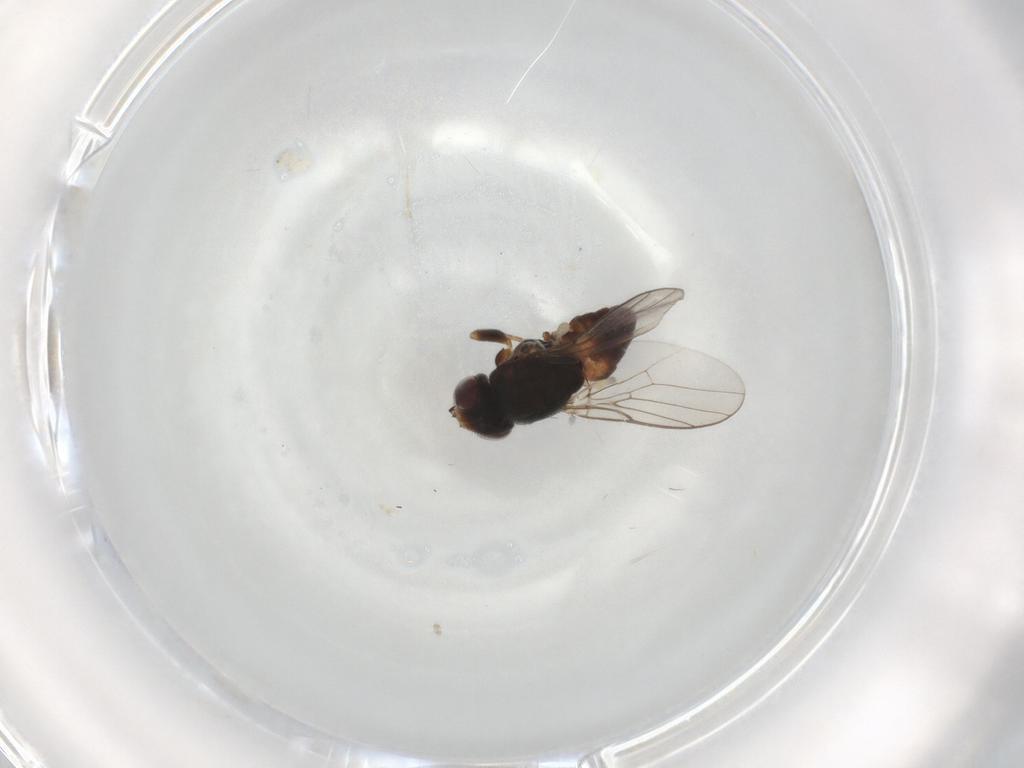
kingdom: Animalia
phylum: Arthropoda
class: Insecta
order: Diptera
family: Chloropidae
